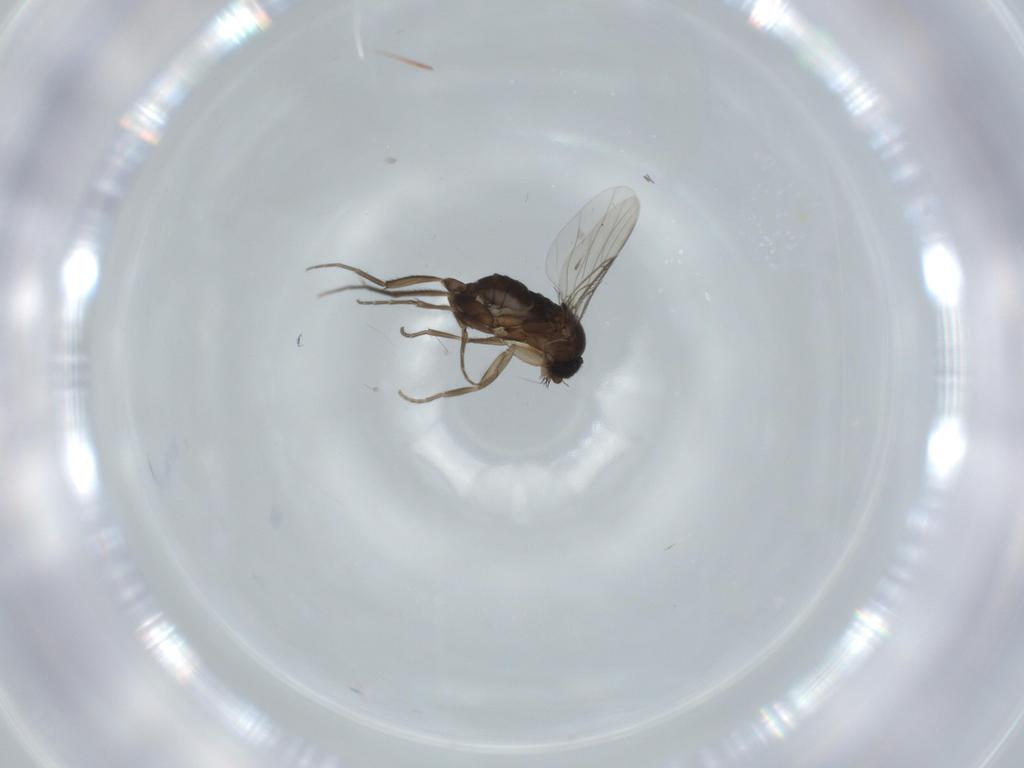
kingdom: Animalia
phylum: Arthropoda
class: Insecta
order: Diptera
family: Phoridae
